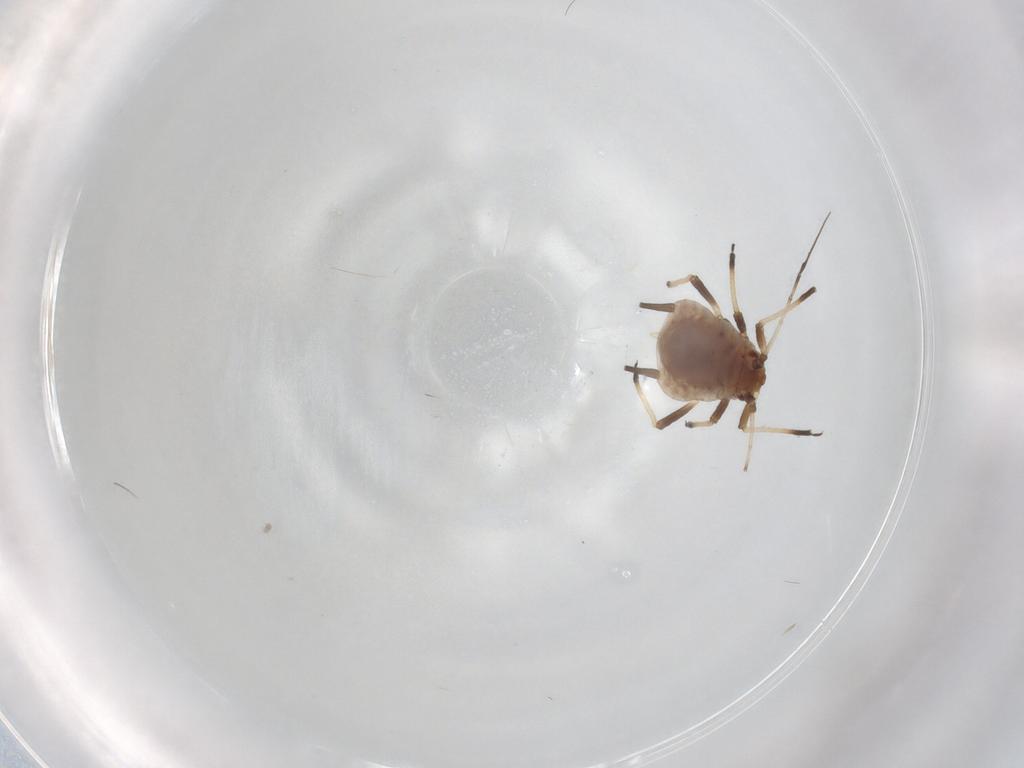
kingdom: Animalia
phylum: Arthropoda
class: Insecta
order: Hemiptera
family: Aphididae
